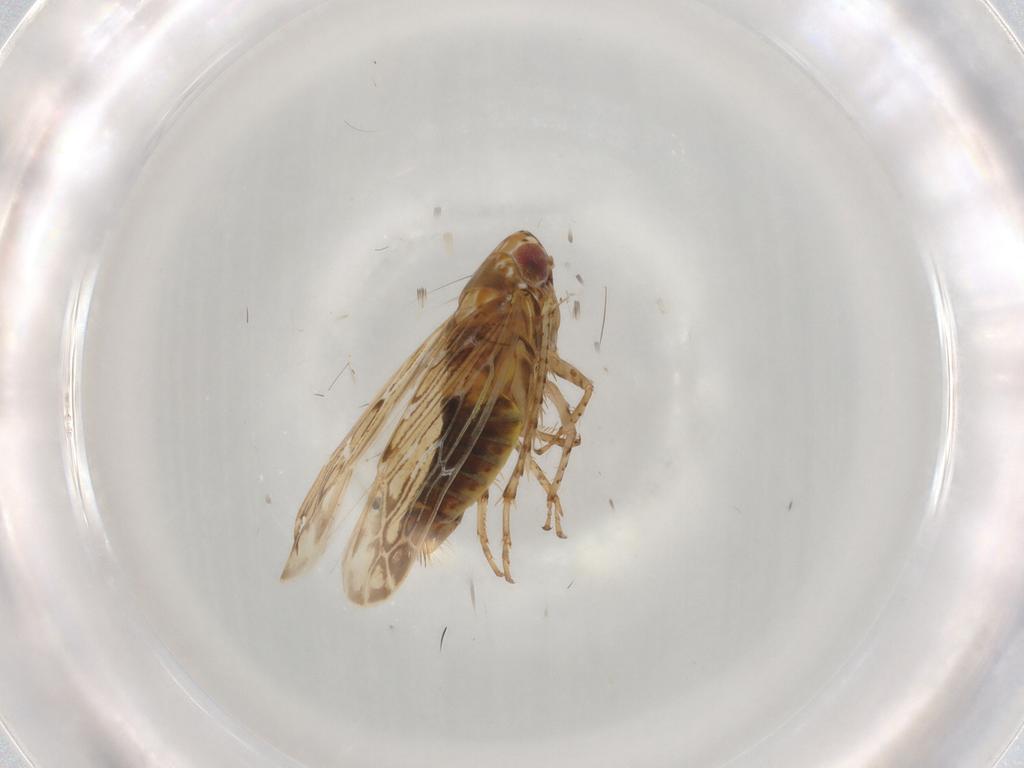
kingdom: Animalia
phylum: Arthropoda
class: Insecta
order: Hemiptera
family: Cicadellidae
